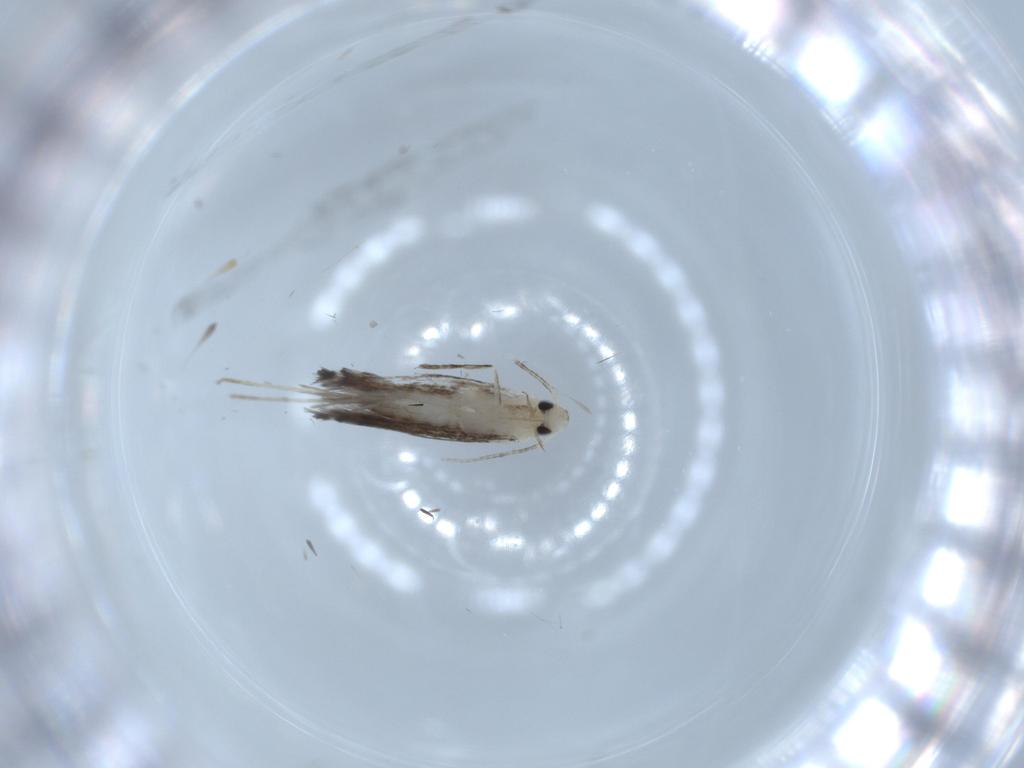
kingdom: Animalia
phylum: Arthropoda
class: Insecta
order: Lepidoptera
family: Gracillariidae
